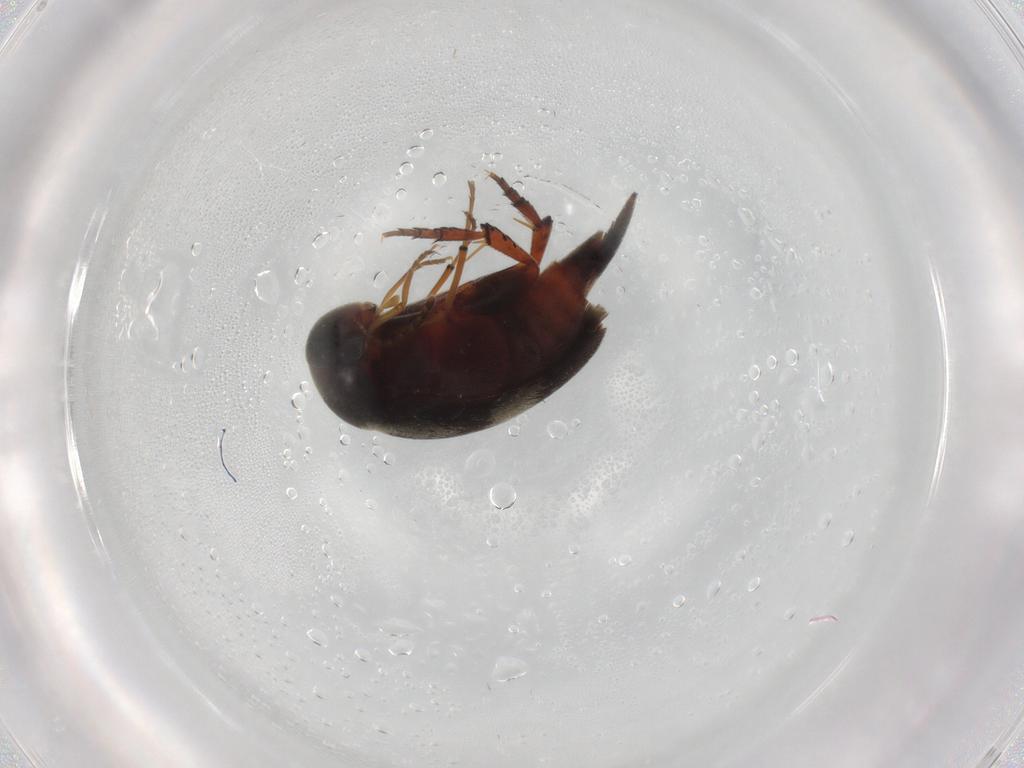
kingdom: Animalia
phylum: Arthropoda
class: Insecta
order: Coleoptera
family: Mordellidae
